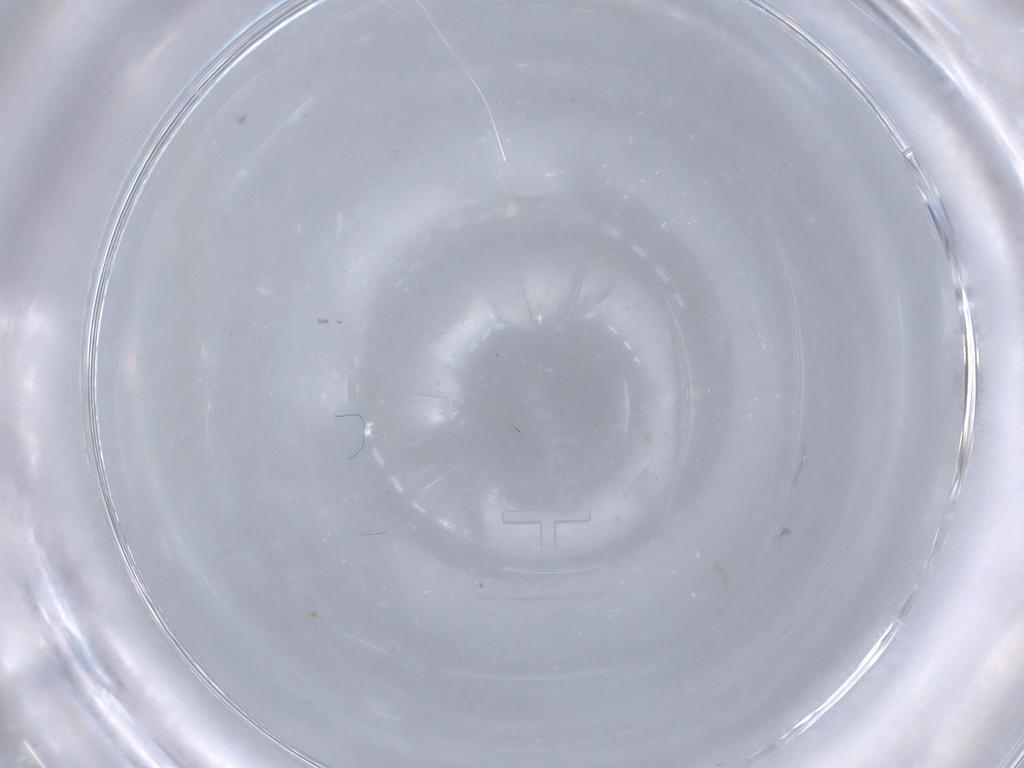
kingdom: Animalia
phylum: Arthropoda
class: Insecta
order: Orthoptera
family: Tettigoniidae
